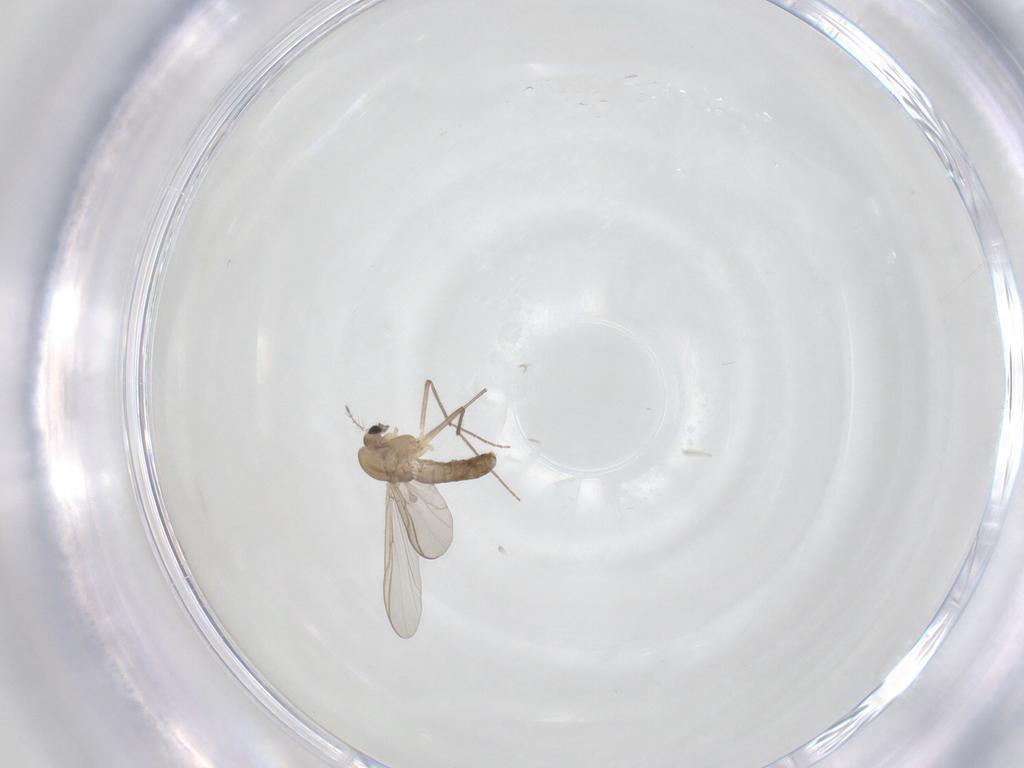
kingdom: Animalia
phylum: Arthropoda
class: Insecta
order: Diptera
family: Chironomidae
